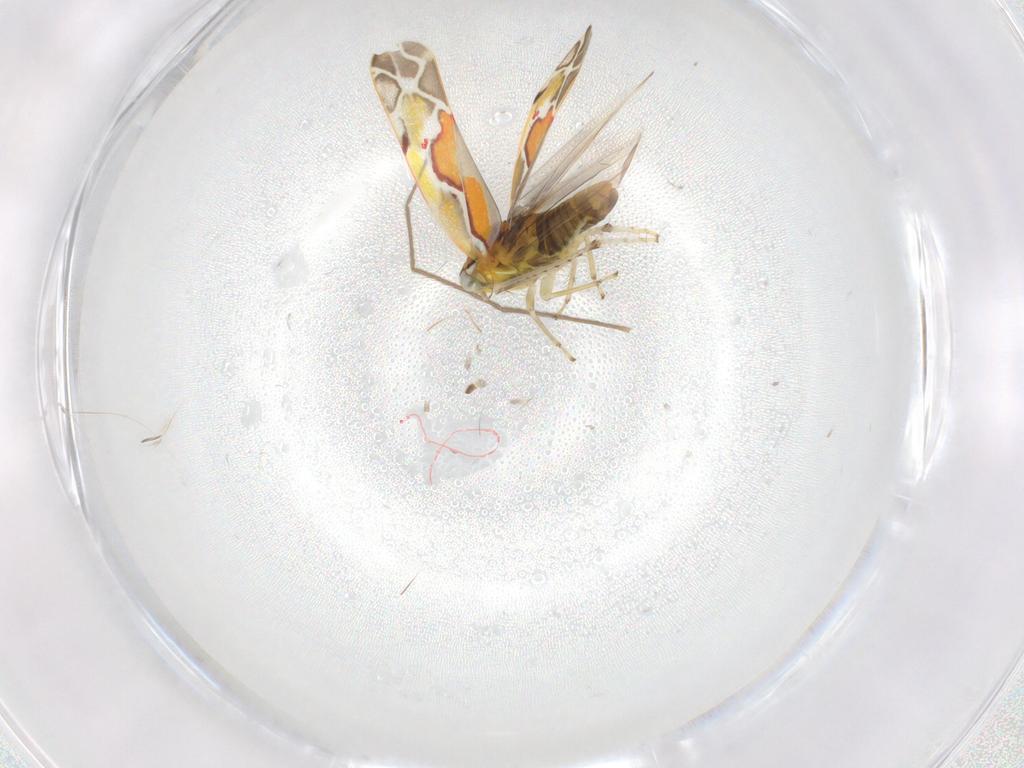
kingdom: Animalia
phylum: Arthropoda
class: Insecta
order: Hemiptera
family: Cicadellidae
